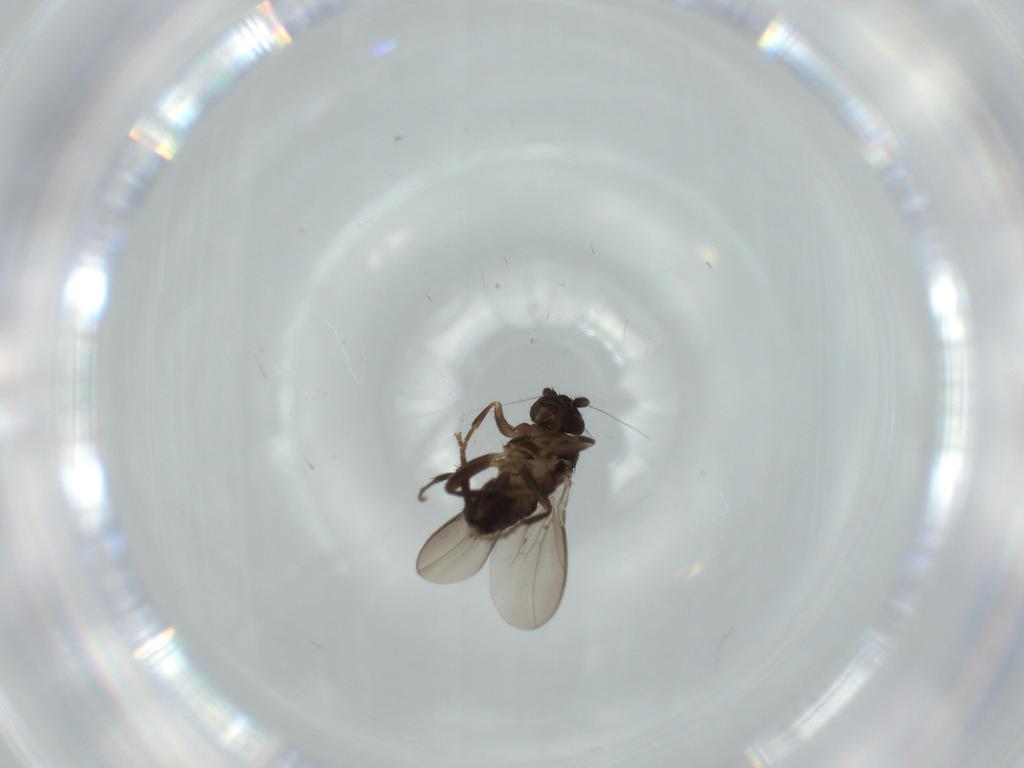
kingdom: Animalia
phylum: Arthropoda
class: Insecta
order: Diptera
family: Sphaeroceridae
